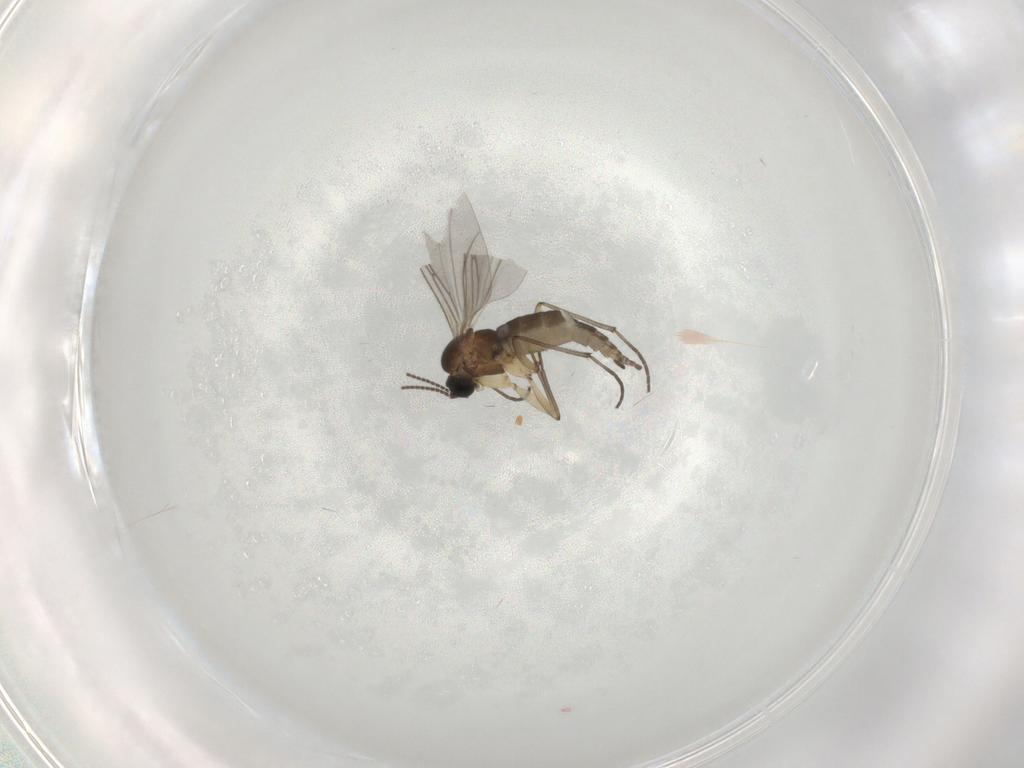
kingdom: Animalia
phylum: Arthropoda
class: Insecta
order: Diptera
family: Sciaridae
